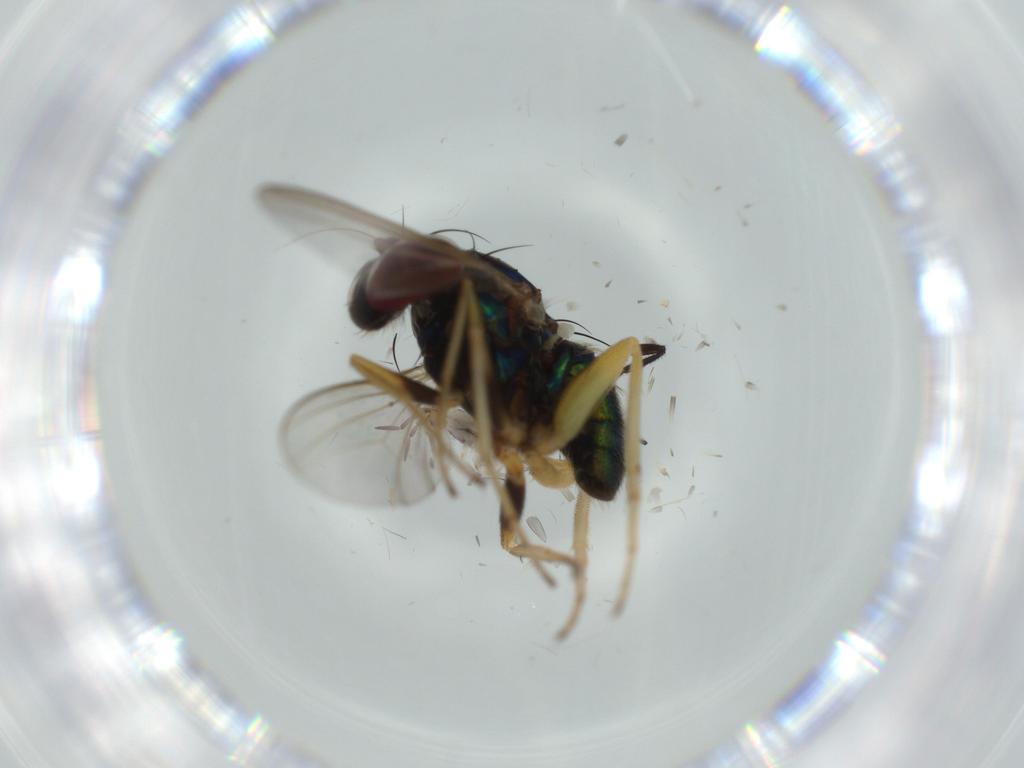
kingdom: Animalia
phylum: Arthropoda
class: Insecta
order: Diptera
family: Dolichopodidae
